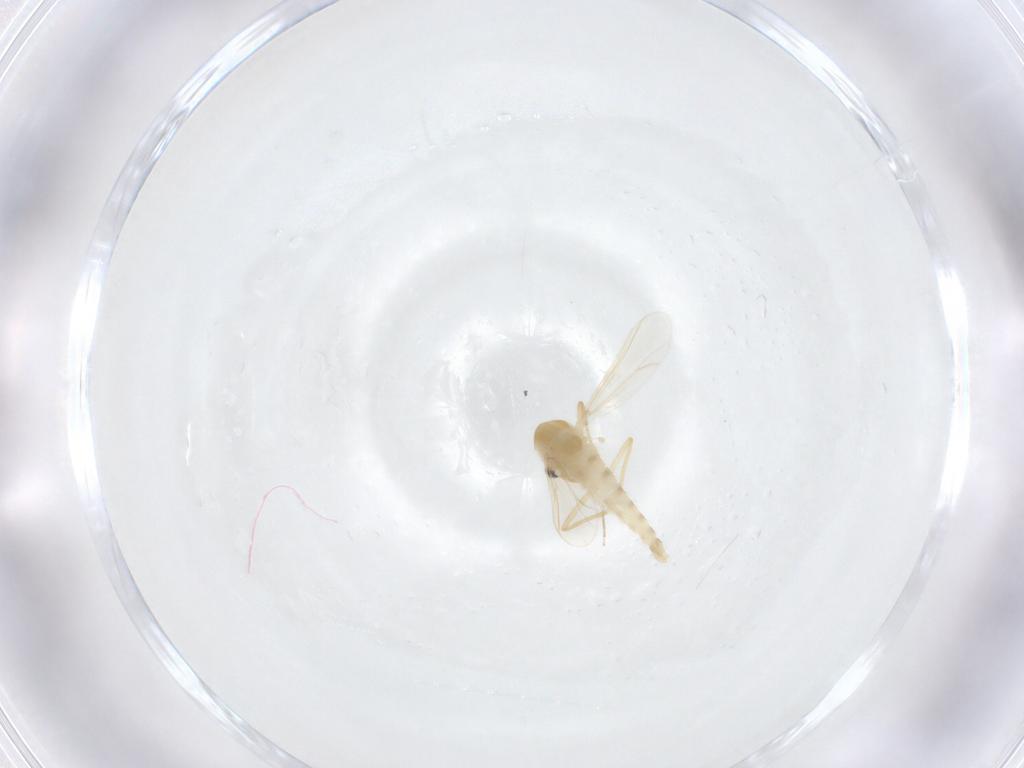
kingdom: Animalia
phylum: Arthropoda
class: Insecta
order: Diptera
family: Chironomidae
